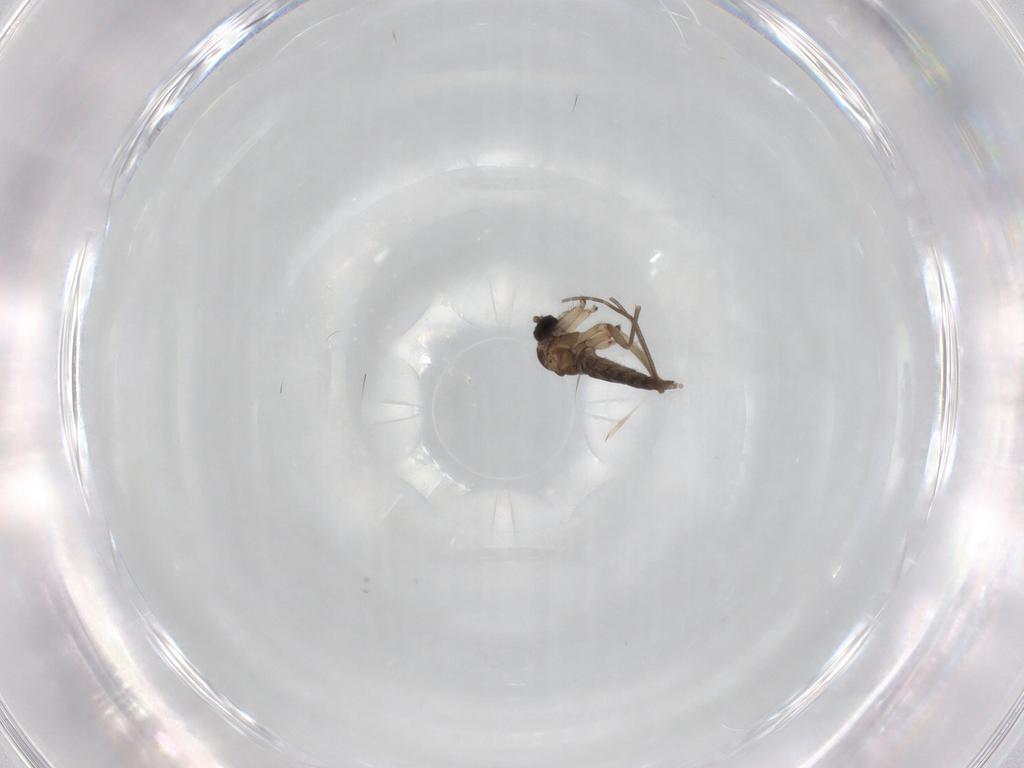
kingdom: Animalia
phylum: Arthropoda
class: Insecta
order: Diptera
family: Sciaridae
